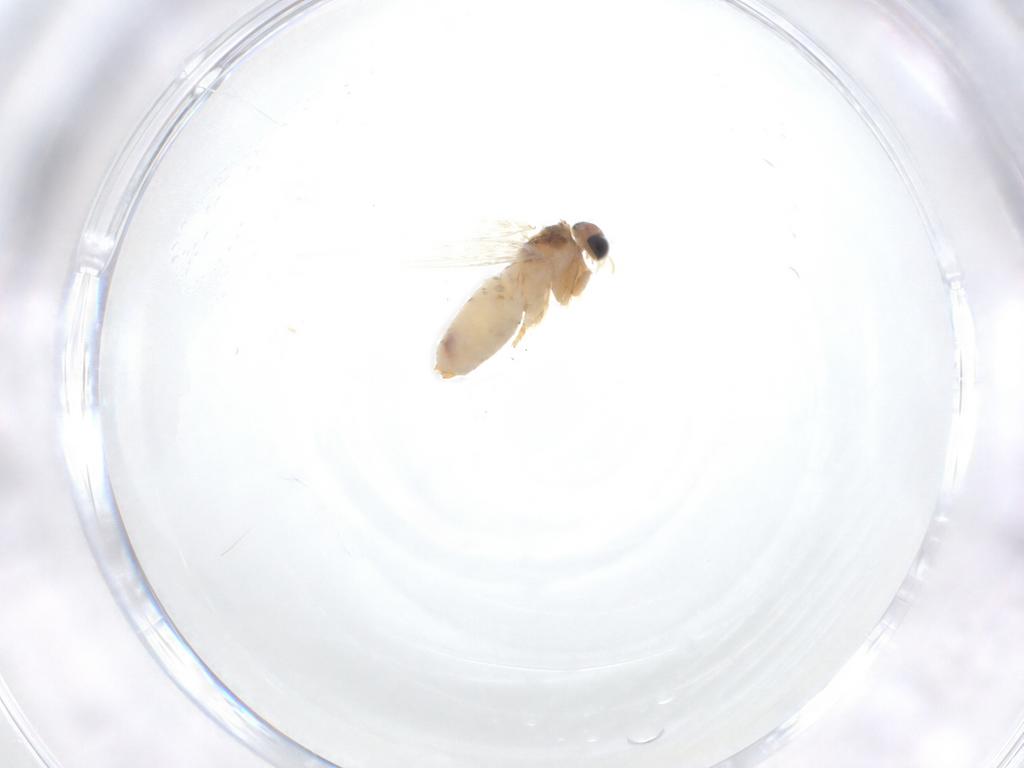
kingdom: Animalia
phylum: Arthropoda
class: Insecta
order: Lepidoptera
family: Nepticulidae
